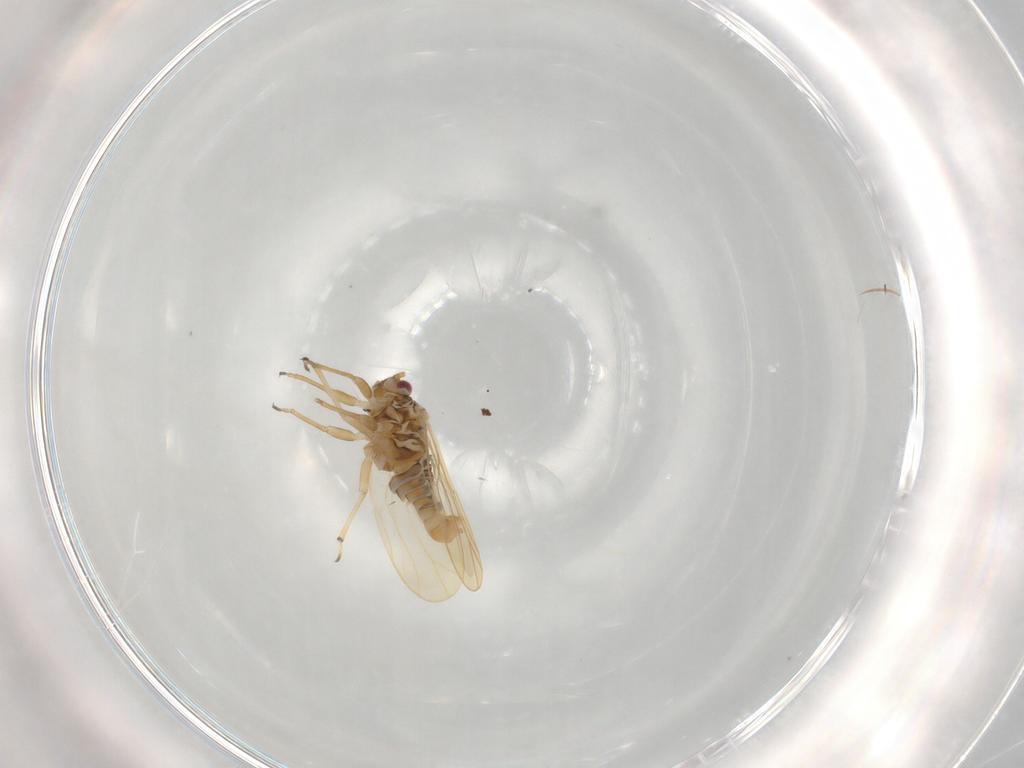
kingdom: Animalia
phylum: Arthropoda
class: Insecta
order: Hemiptera
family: Psylloidea_incertae_sedis
